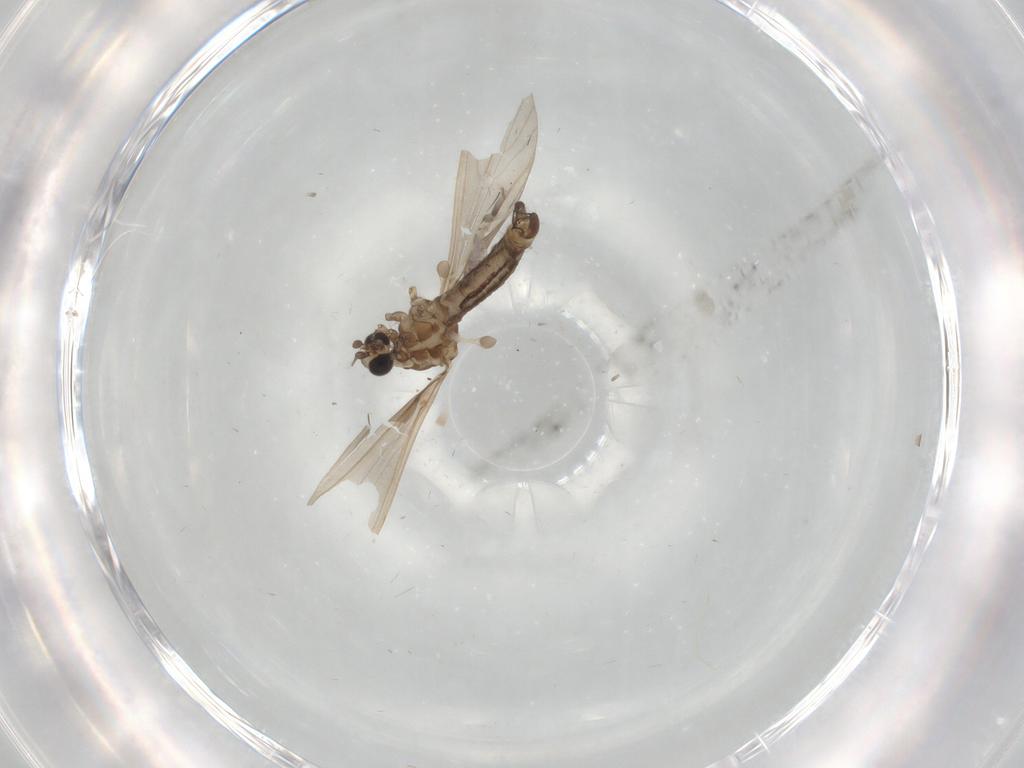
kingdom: Animalia
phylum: Arthropoda
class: Insecta
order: Diptera
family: Limoniidae
